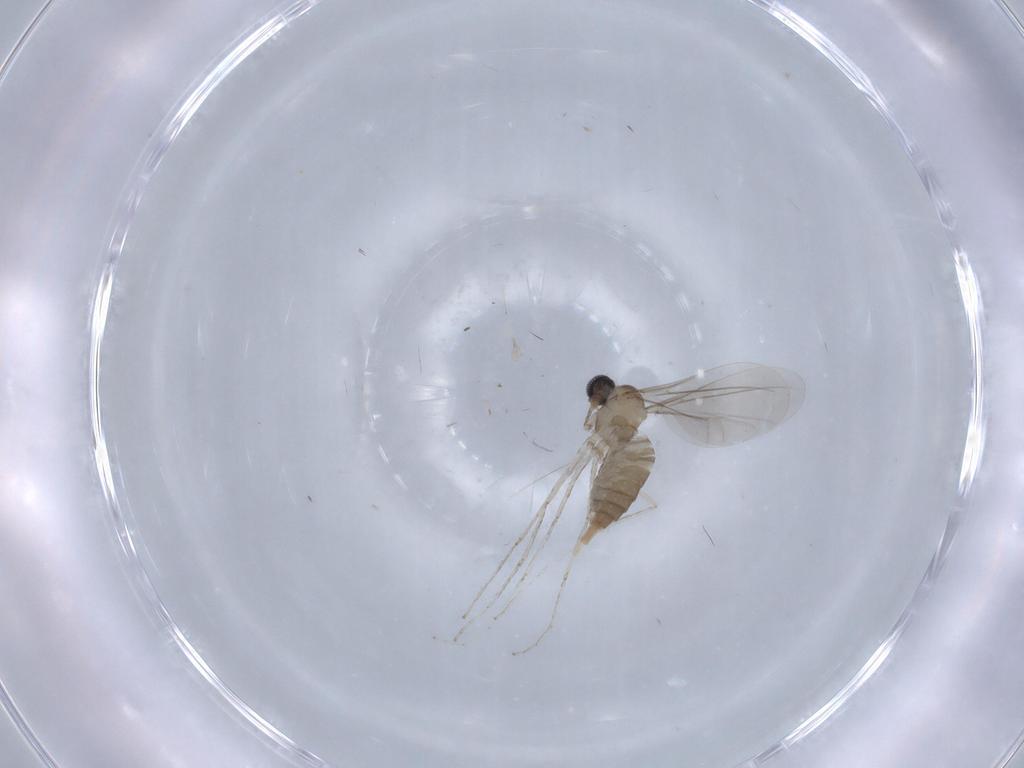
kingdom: Animalia
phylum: Arthropoda
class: Insecta
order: Diptera
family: Cecidomyiidae
